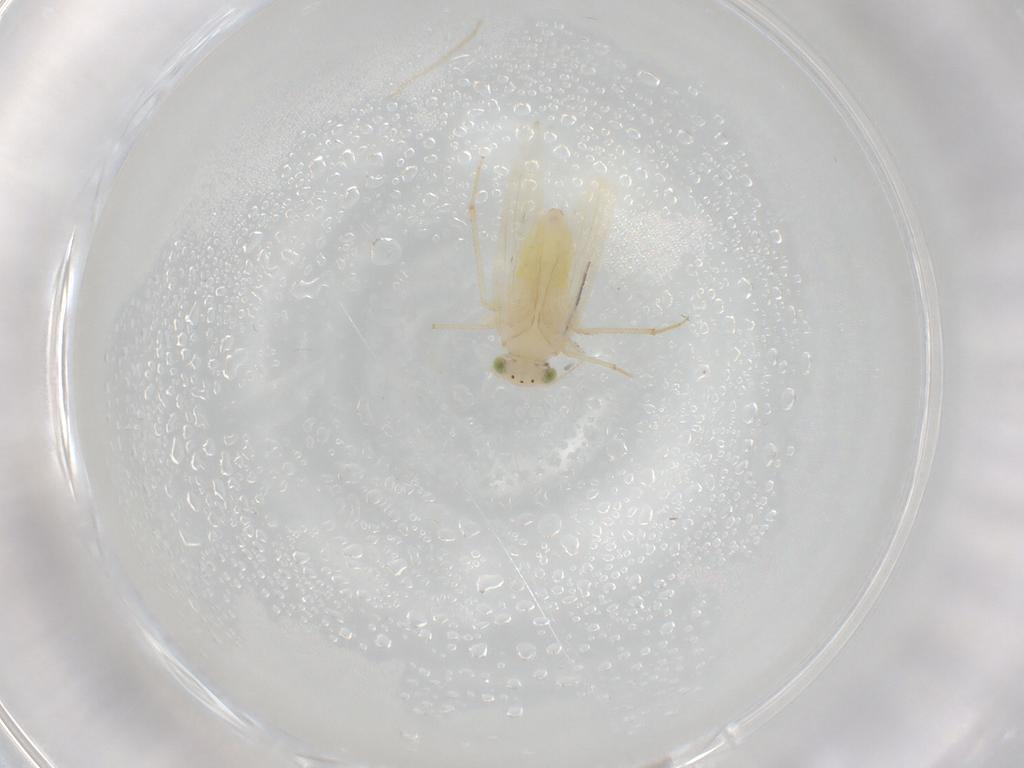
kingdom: Animalia
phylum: Arthropoda
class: Insecta
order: Psocodea
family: Lepidopsocidae
